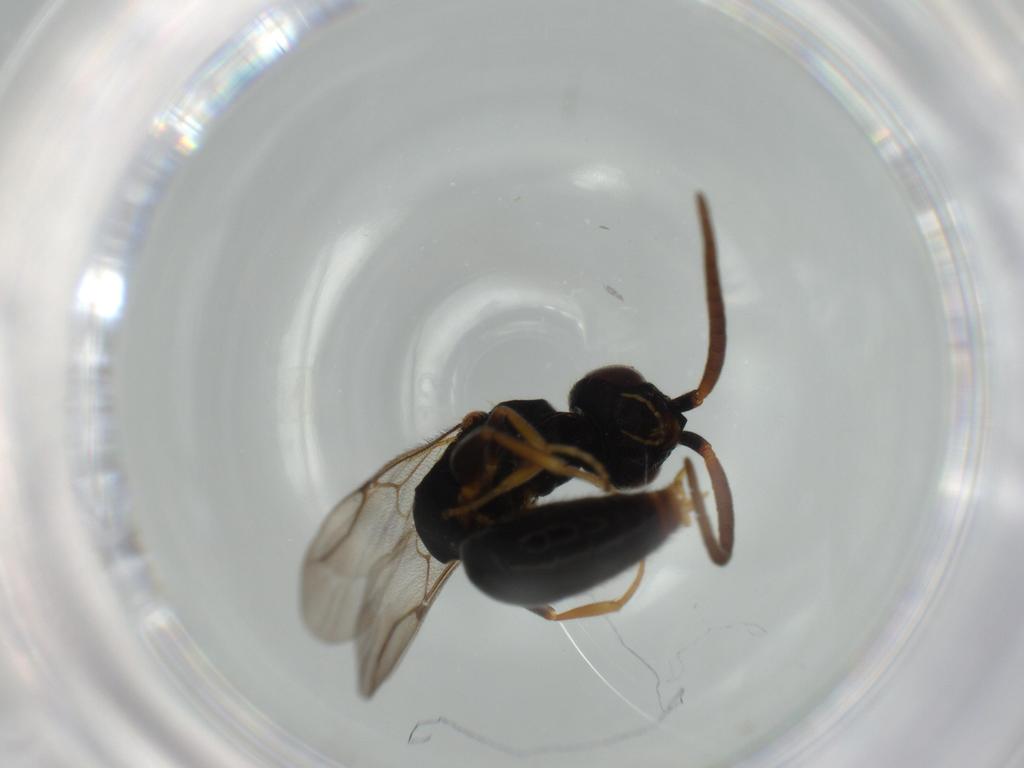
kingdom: Animalia
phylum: Arthropoda
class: Insecta
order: Hymenoptera
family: Bethylidae
